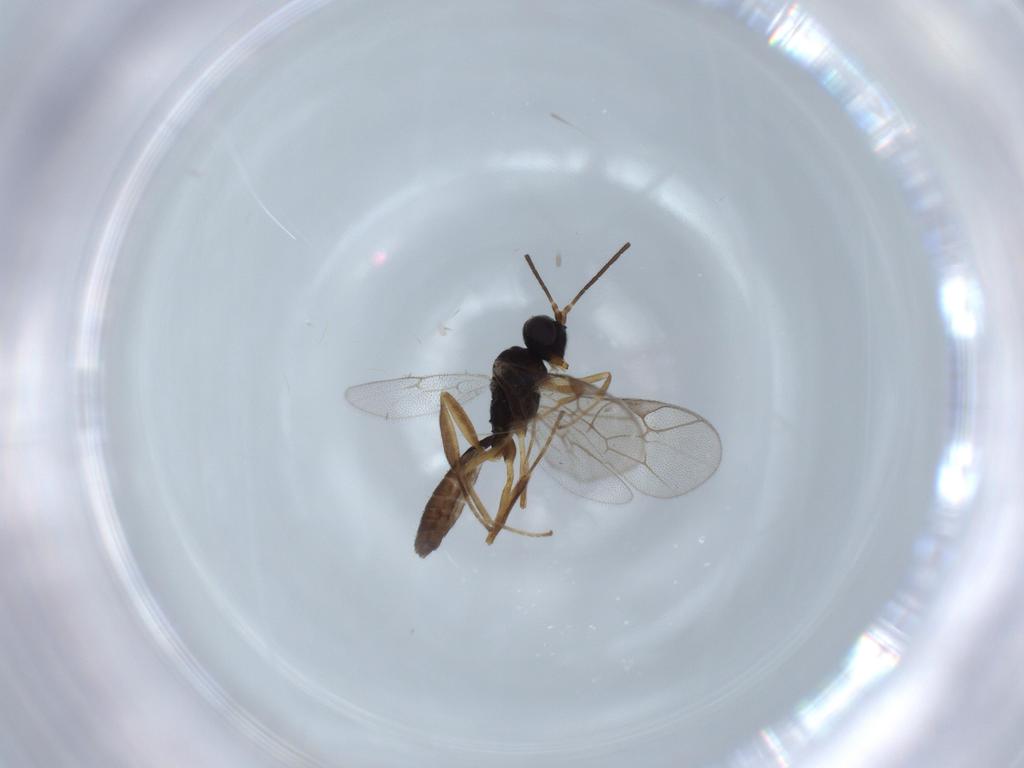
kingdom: Animalia
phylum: Arthropoda
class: Insecta
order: Hymenoptera
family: Ichneumonidae
